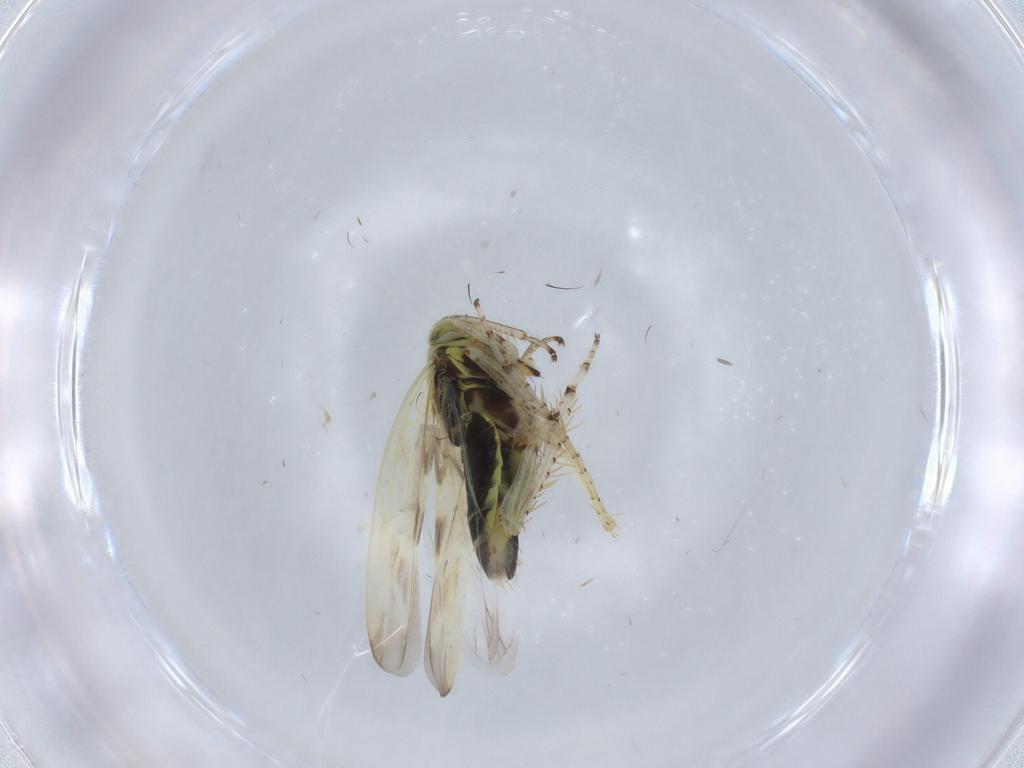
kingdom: Animalia
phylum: Arthropoda
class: Insecta
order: Hemiptera
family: Cicadellidae
